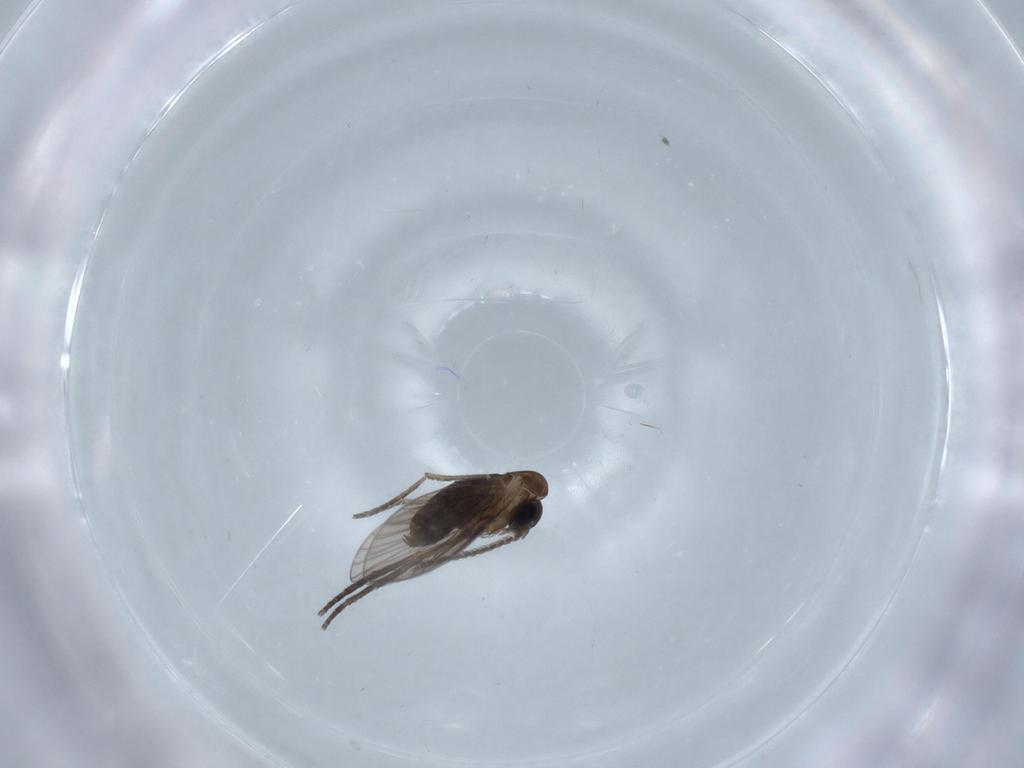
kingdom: Animalia
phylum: Arthropoda
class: Insecta
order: Diptera
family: Psychodidae
